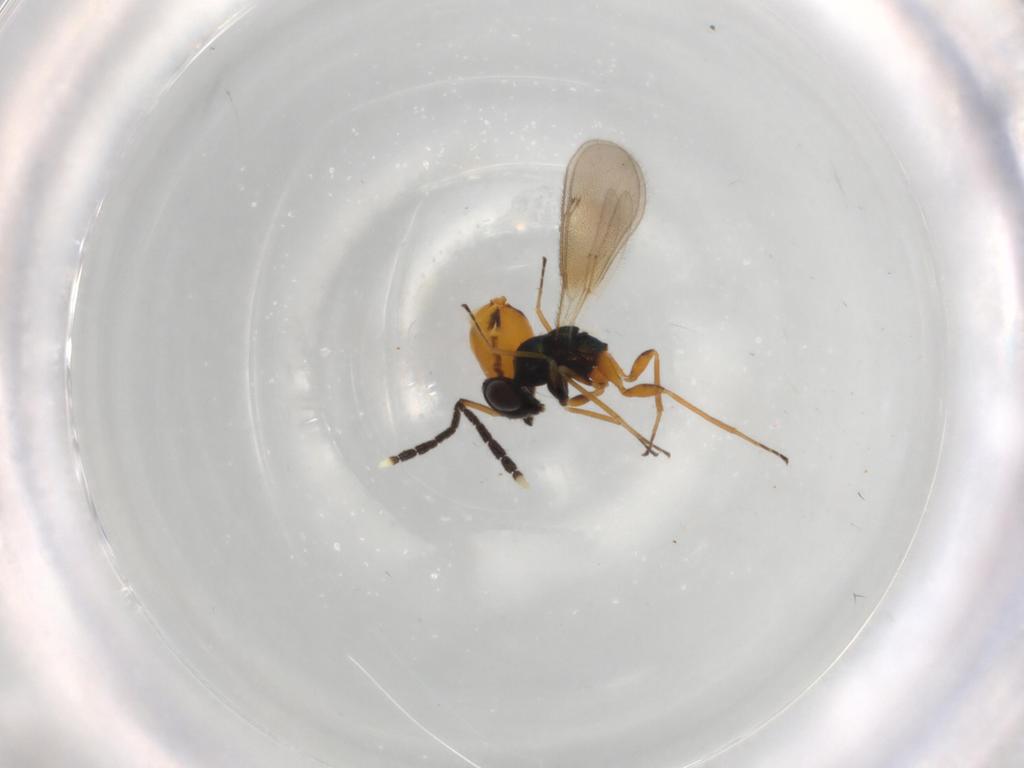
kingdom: Animalia
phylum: Arthropoda
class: Insecta
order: Hymenoptera
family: Eulophidae
